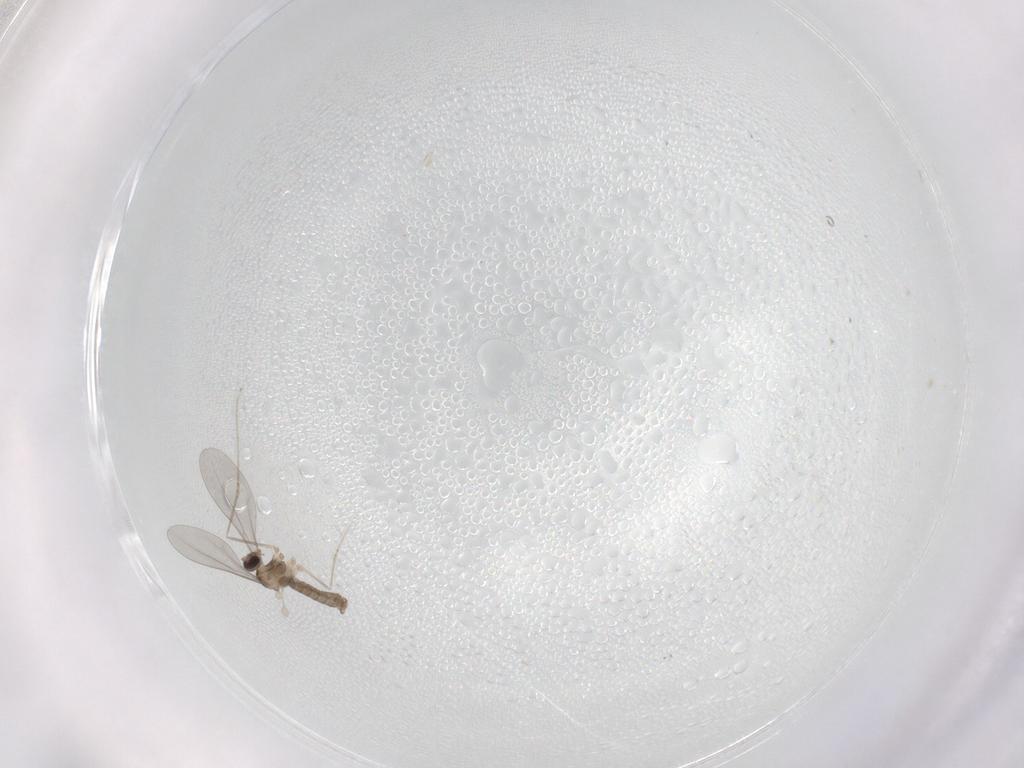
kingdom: Animalia
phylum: Arthropoda
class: Insecta
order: Diptera
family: Cecidomyiidae
